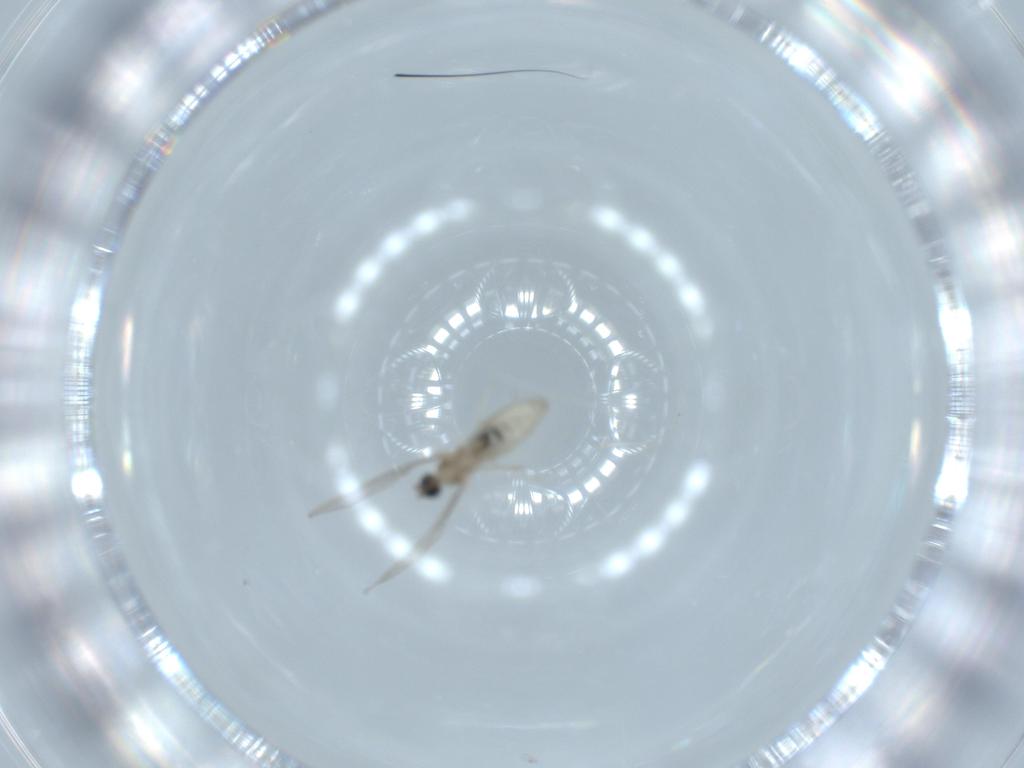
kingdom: Animalia
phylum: Arthropoda
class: Insecta
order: Diptera
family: Cecidomyiidae
